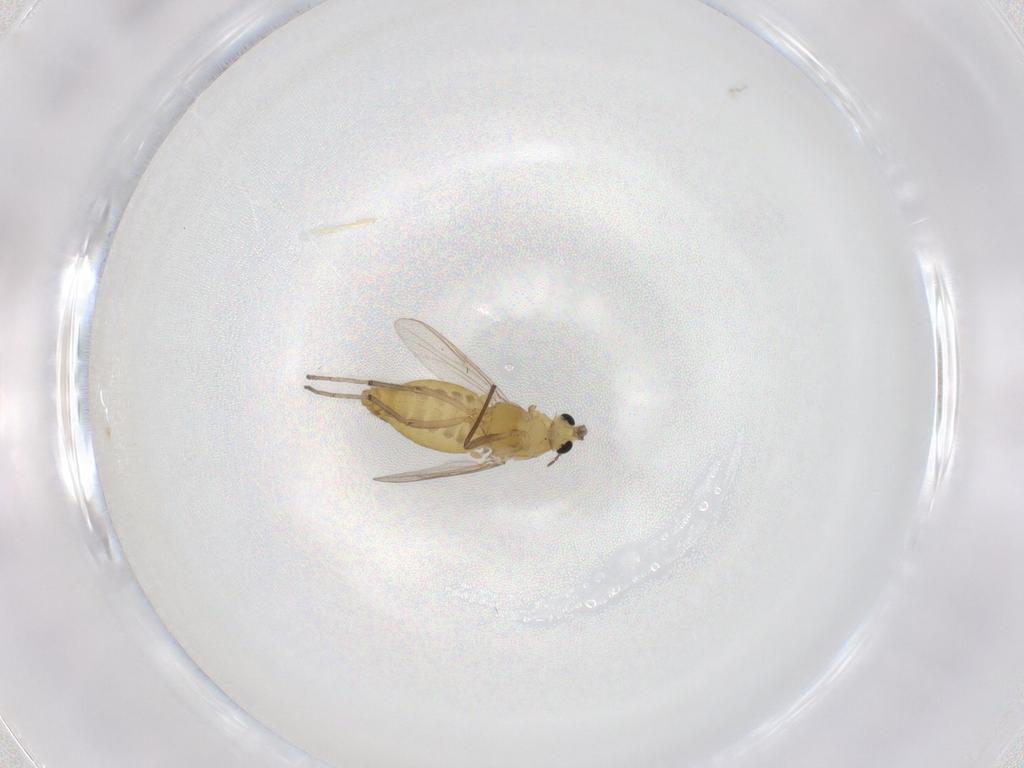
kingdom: Animalia
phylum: Arthropoda
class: Insecta
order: Diptera
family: Chironomidae
